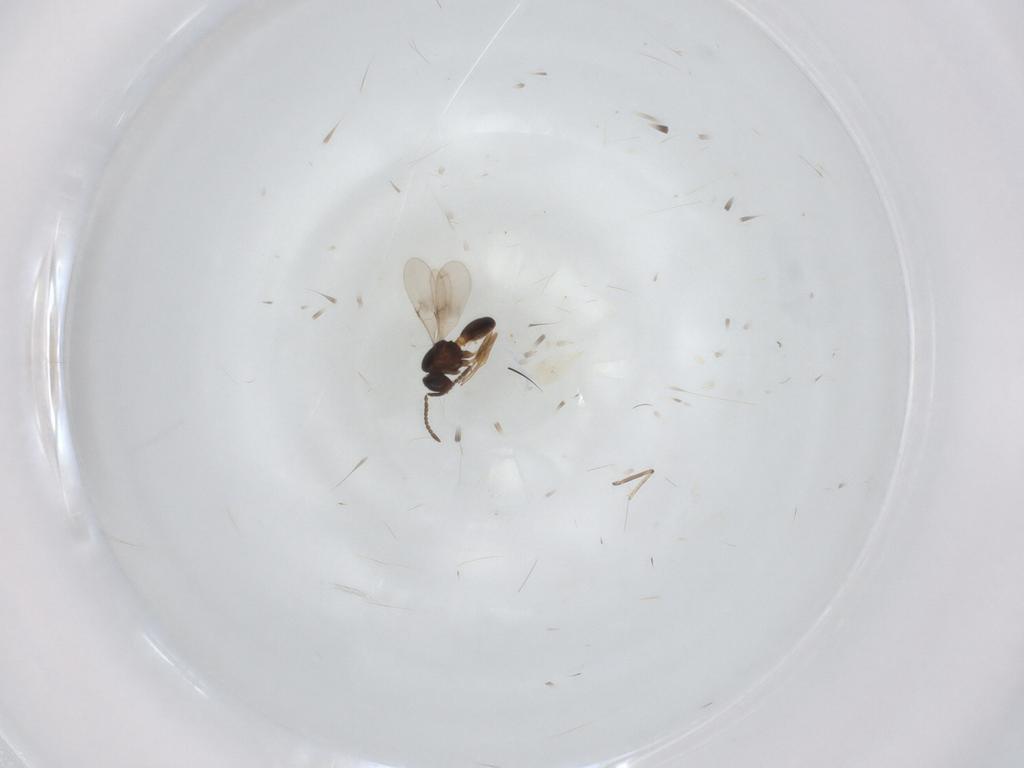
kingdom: Animalia
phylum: Arthropoda
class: Insecta
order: Hymenoptera
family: Scelionidae
